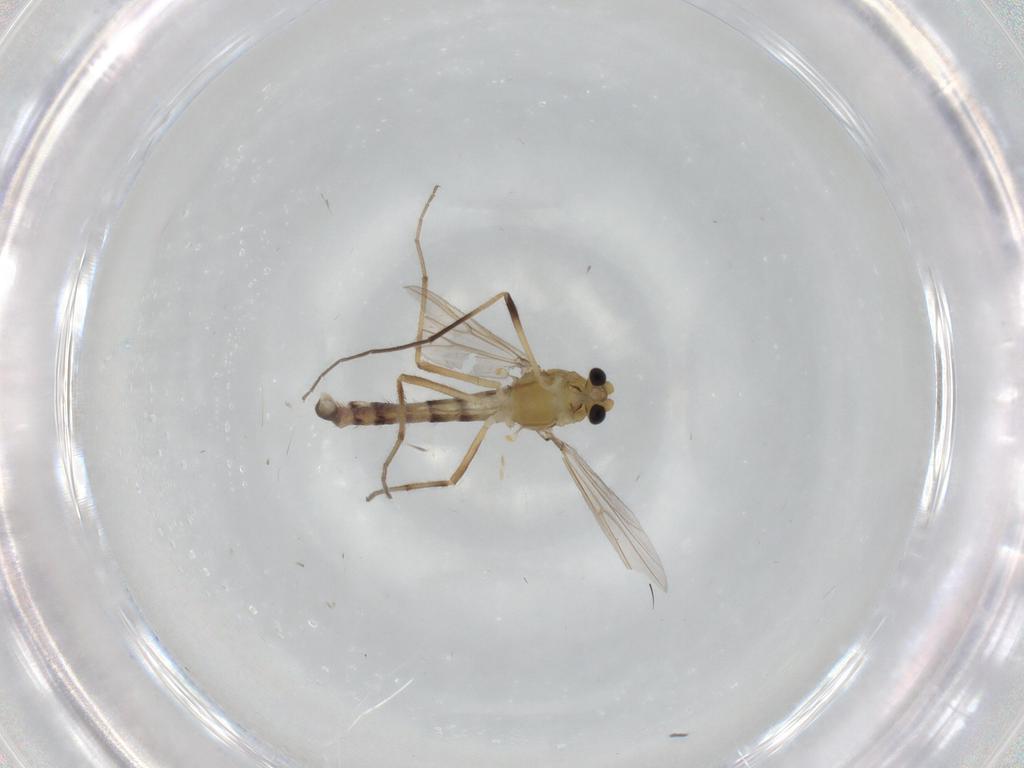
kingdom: Animalia
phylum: Arthropoda
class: Insecta
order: Diptera
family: Chironomidae
